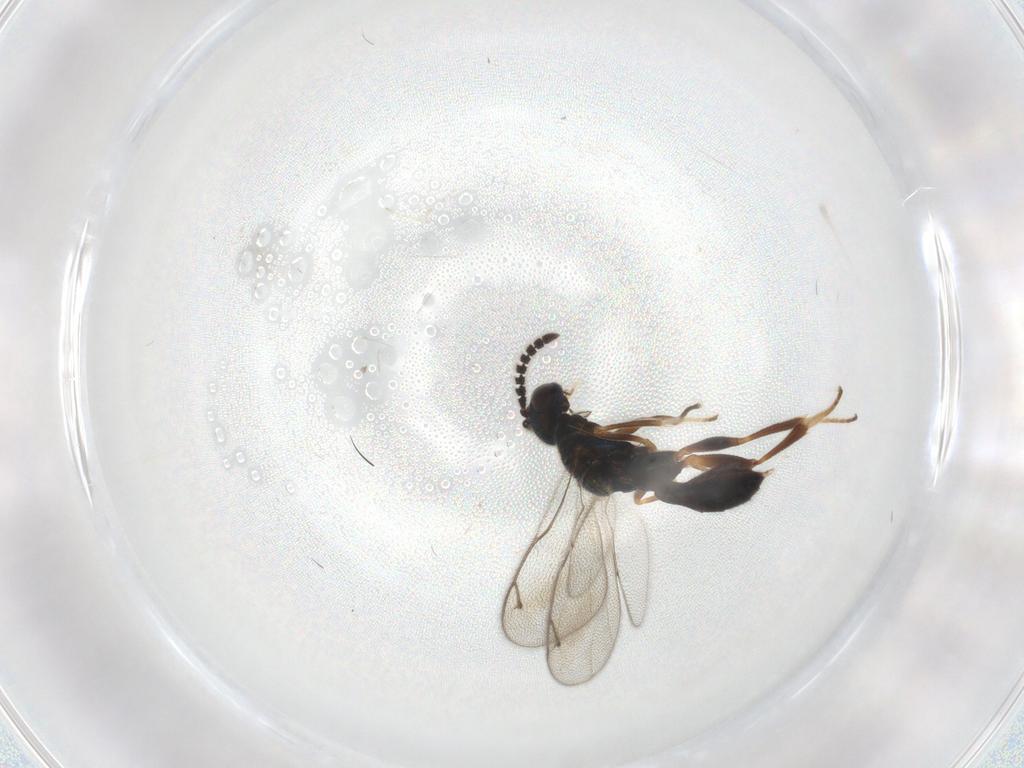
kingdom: Animalia
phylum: Arthropoda
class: Insecta
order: Hymenoptera
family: Cleonyminae
